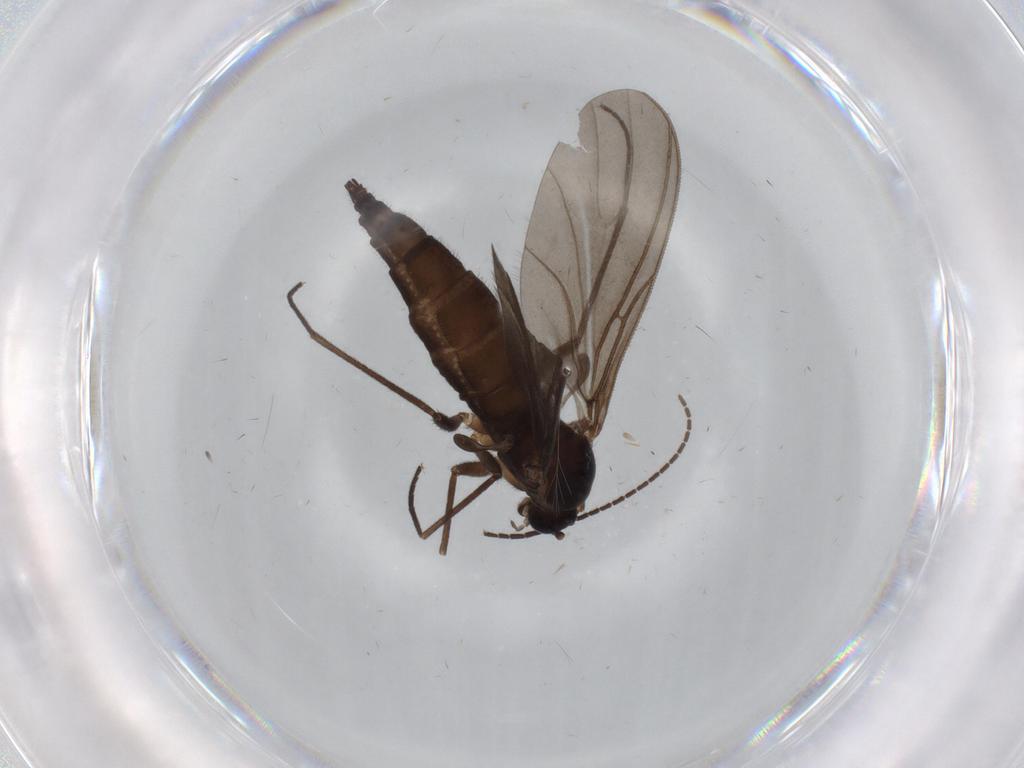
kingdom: Animalia
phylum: Arthropoda
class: Insecta
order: Diptera
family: Sciaridae
